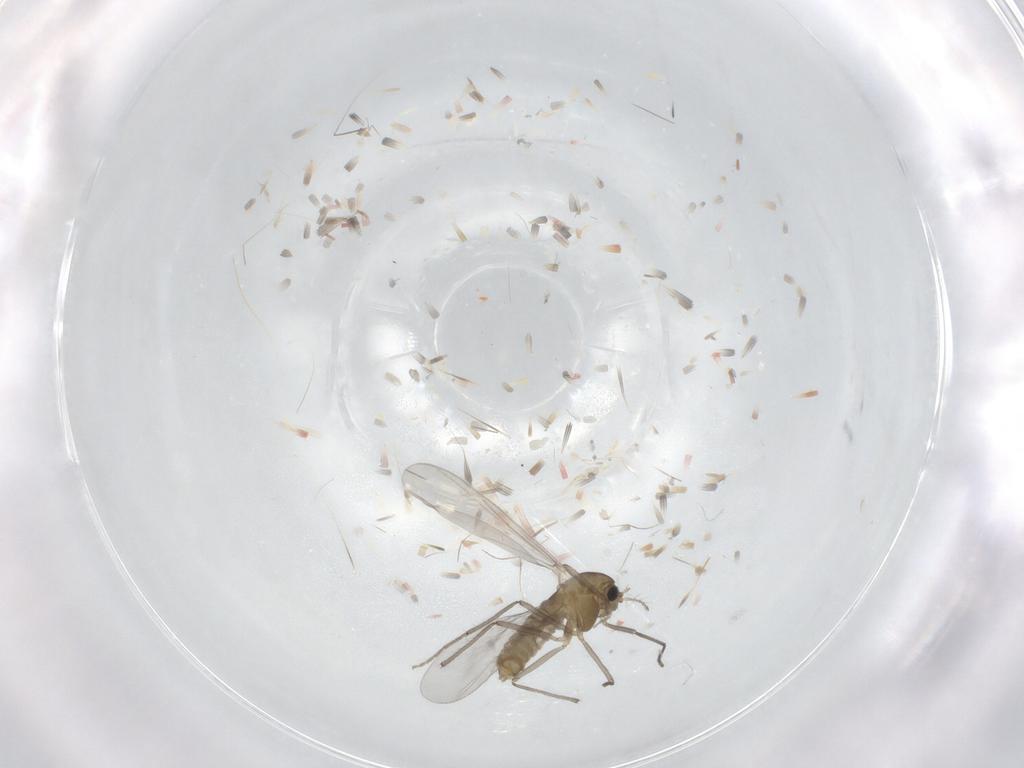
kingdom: Animalia
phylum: Arthropoda
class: Insecta
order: Diptera
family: Chironomidae
